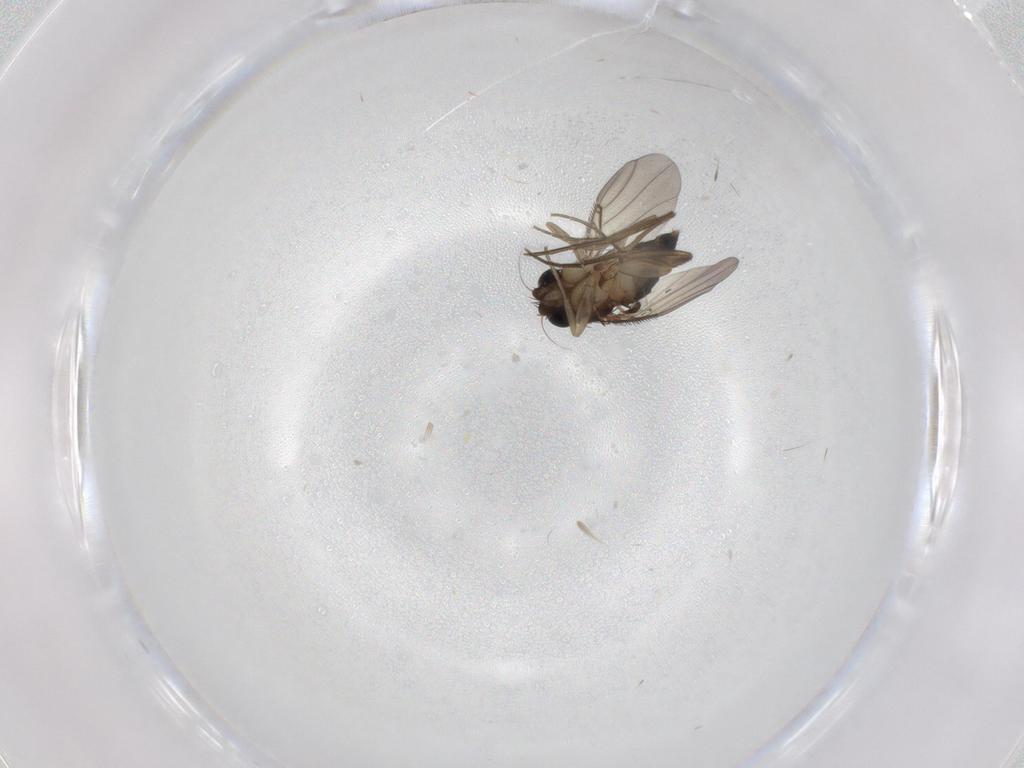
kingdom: Animalia
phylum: Arthropoda
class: Insecta
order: Diptera
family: Phoridae
